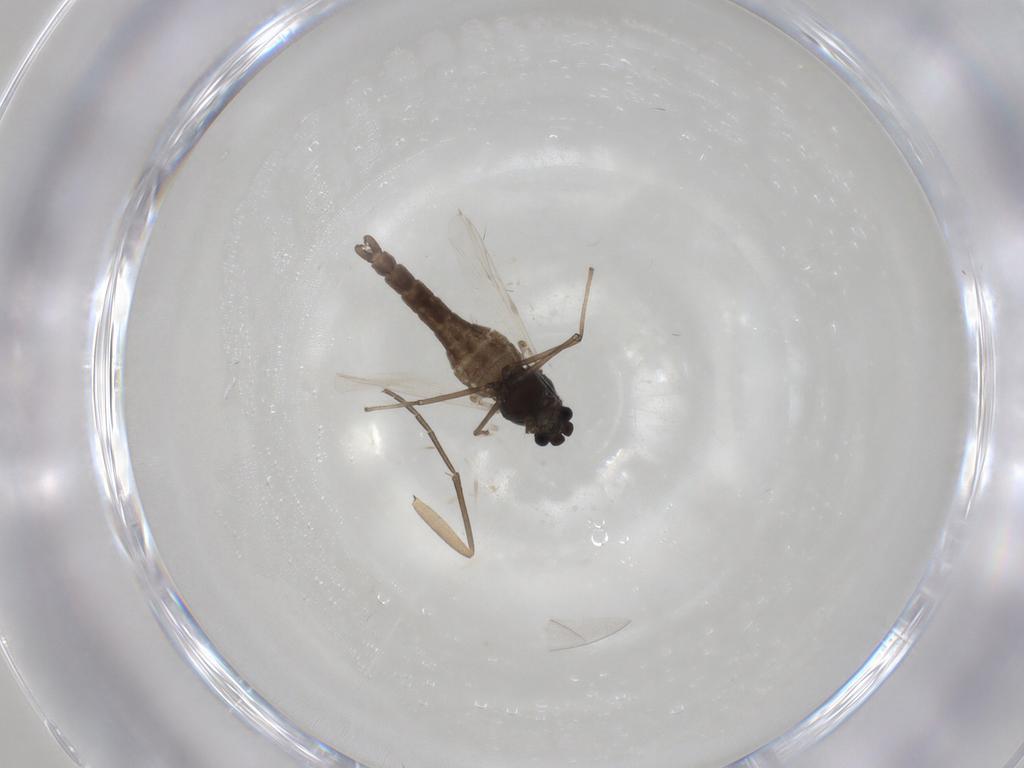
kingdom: Animalia
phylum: Arthropoda
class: Insecta
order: Diptera
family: Chironomidae
